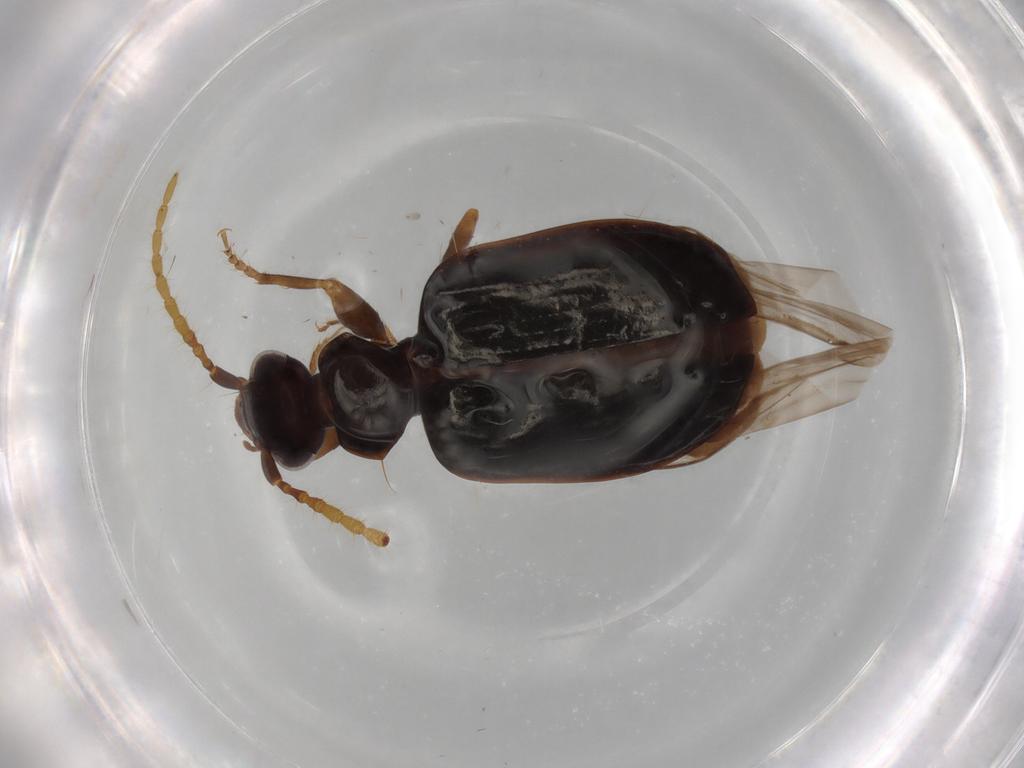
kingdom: Animalia
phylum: Arthropoda
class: Insecta
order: Coleoptera
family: Carabidae
